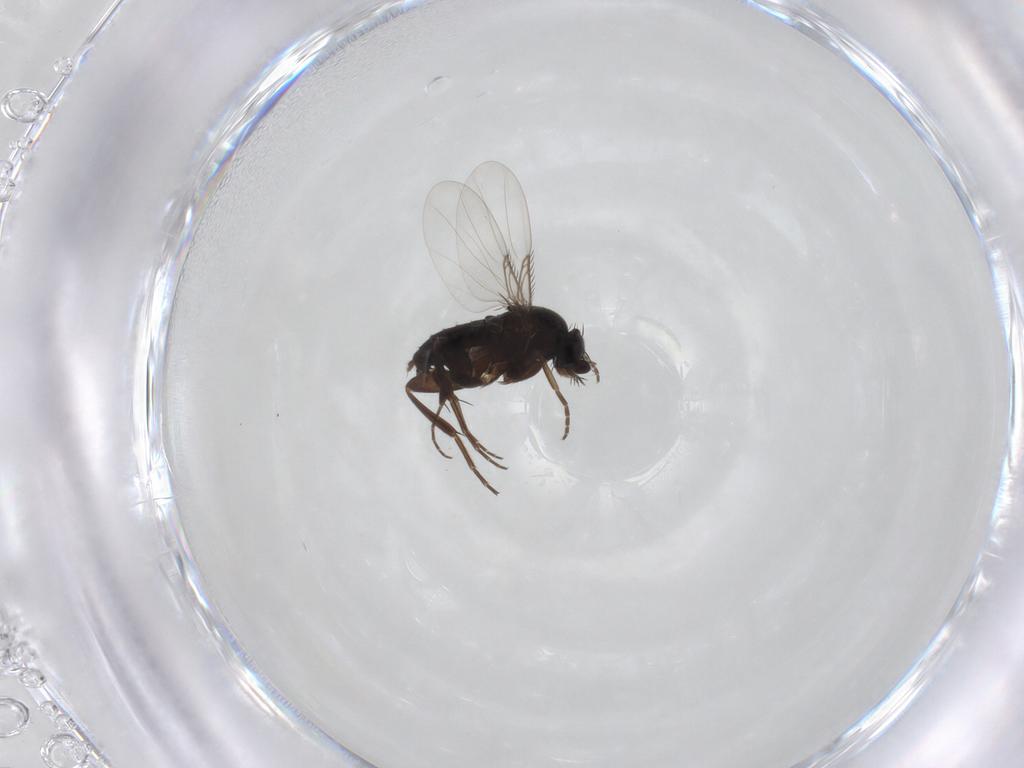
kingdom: Animalia
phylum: Arthropoda
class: Insecta
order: Diptera
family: Phoridae
